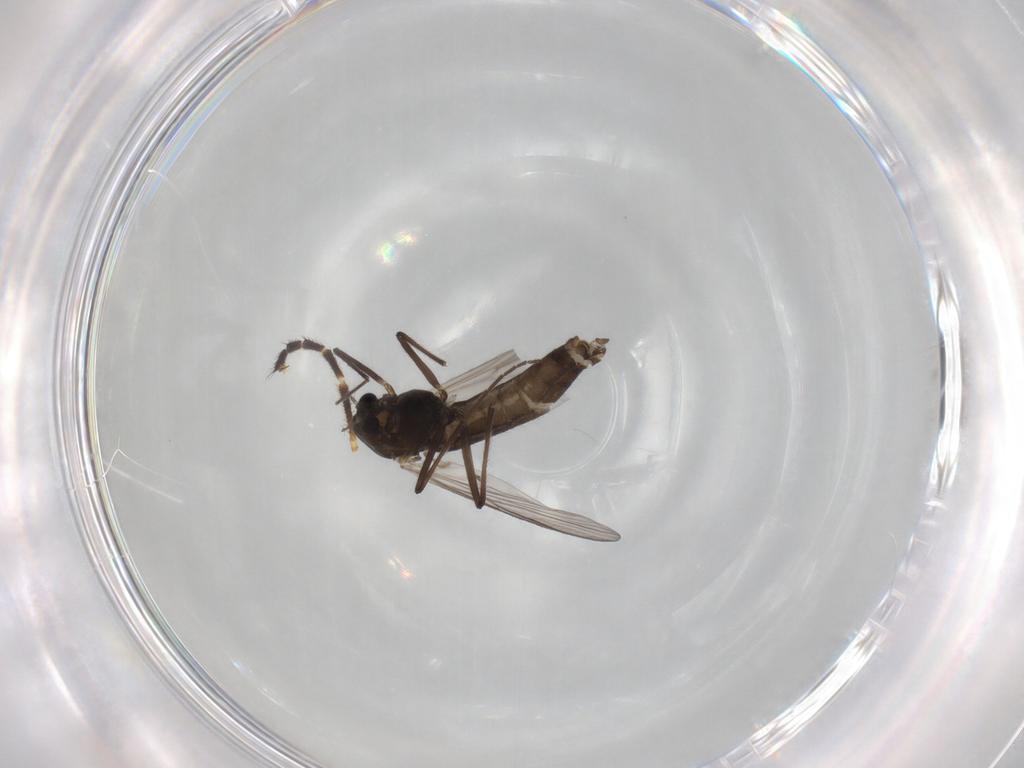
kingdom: Animalia
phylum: Arthropoda
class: Insecta
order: Diptera
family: Chironomidae
